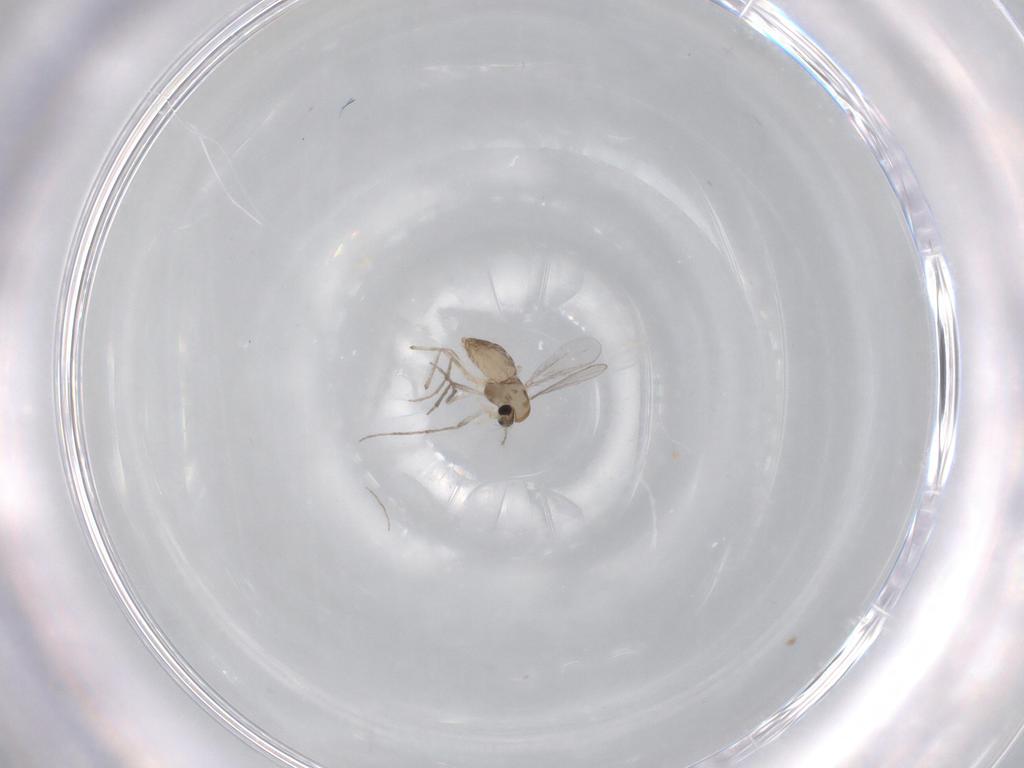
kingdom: Animalia
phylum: Arthropoda
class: Insecta
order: Diptera
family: Chironomidae
